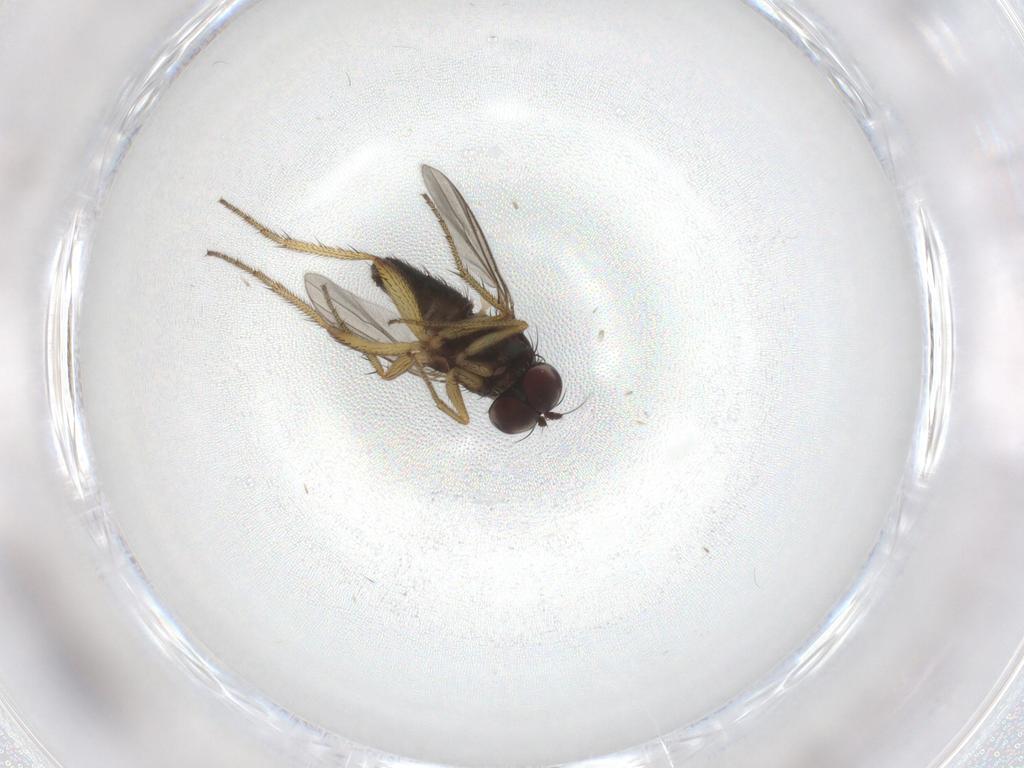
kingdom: Animalia
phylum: Arthropoda
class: Insecta
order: Diptera
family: Dolichopodidae
